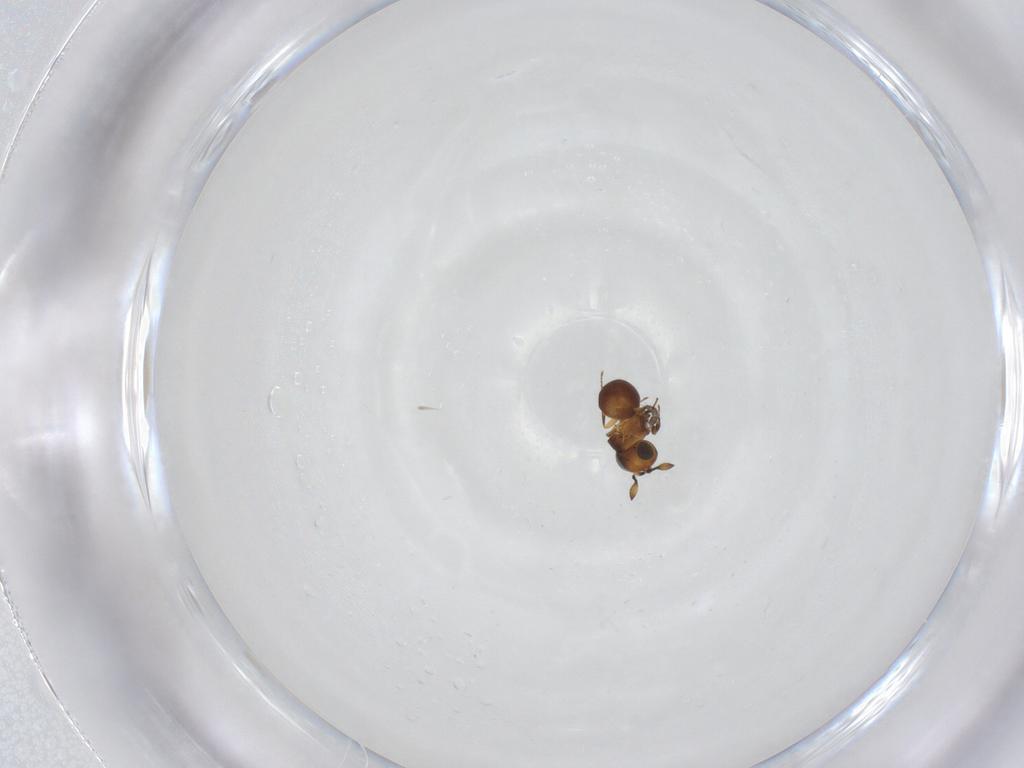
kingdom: Animalia
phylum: Arthropoda
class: Insecta
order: Hymenoptera
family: Scelionidae
